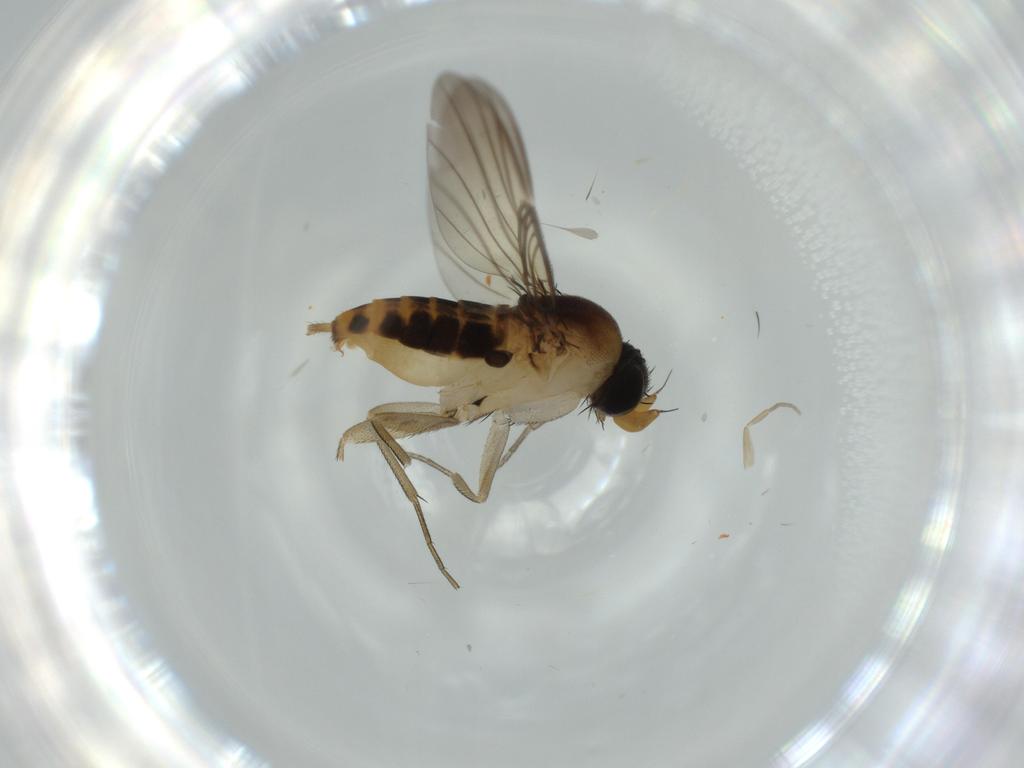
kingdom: Animalia
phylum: Arthropoda
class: Insecta
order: Diptera
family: Phoridae
